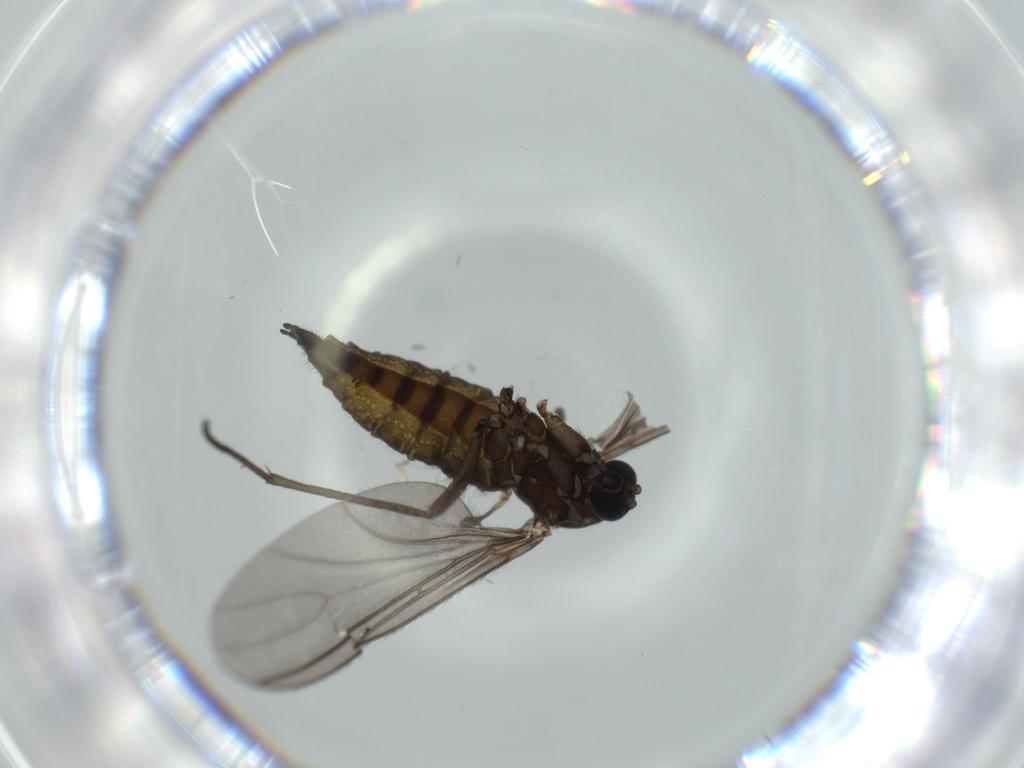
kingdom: Animalia
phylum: Arthropoda
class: Insecta
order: Diptera
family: Sciaridae
